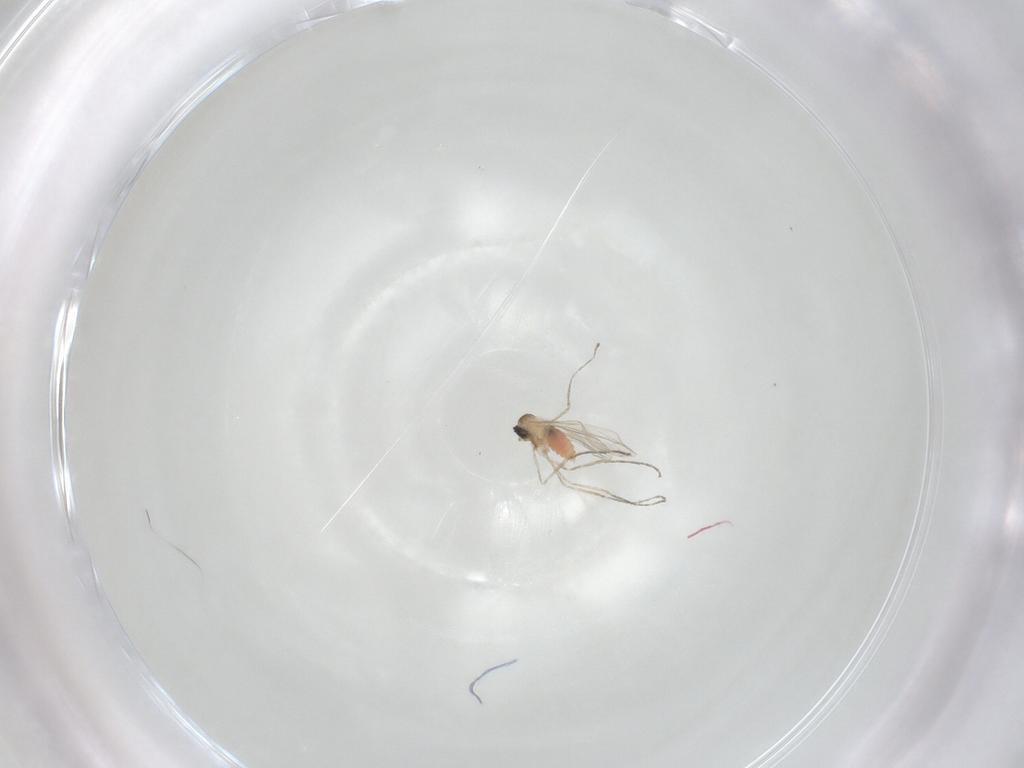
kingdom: Animalia
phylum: Arthropoda
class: Insecta
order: Diptera
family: Cecidomyiidae
